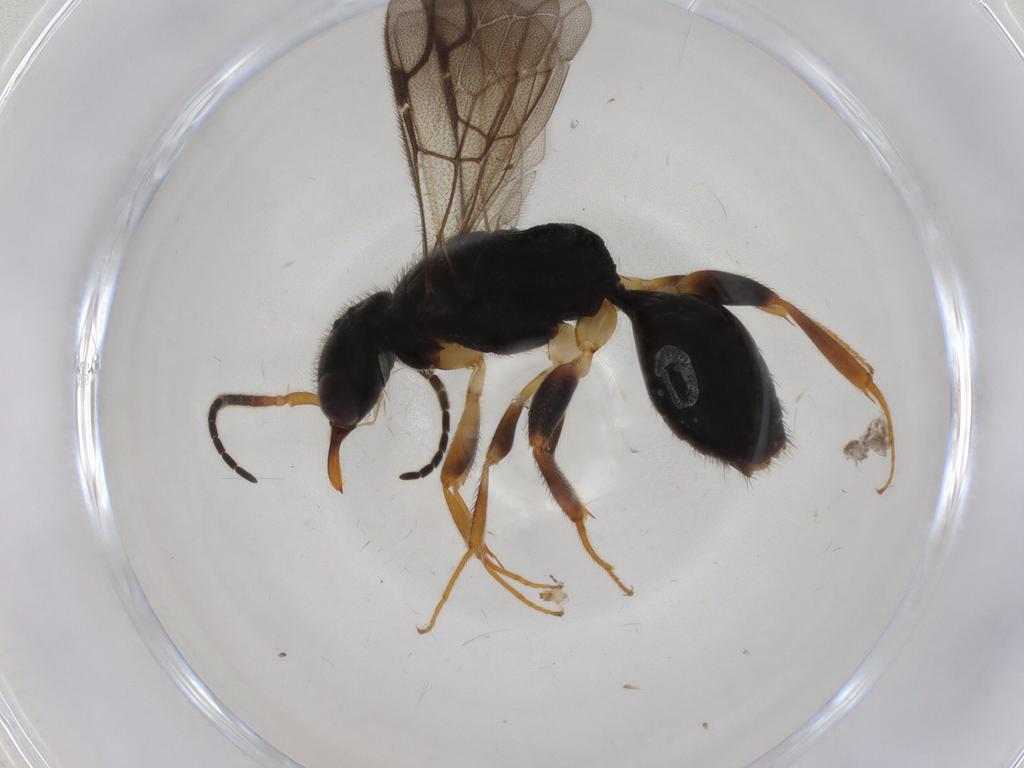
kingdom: Animalia
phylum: Arthropoda
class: Insecta
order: Hymenoptera
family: Bethylidae
